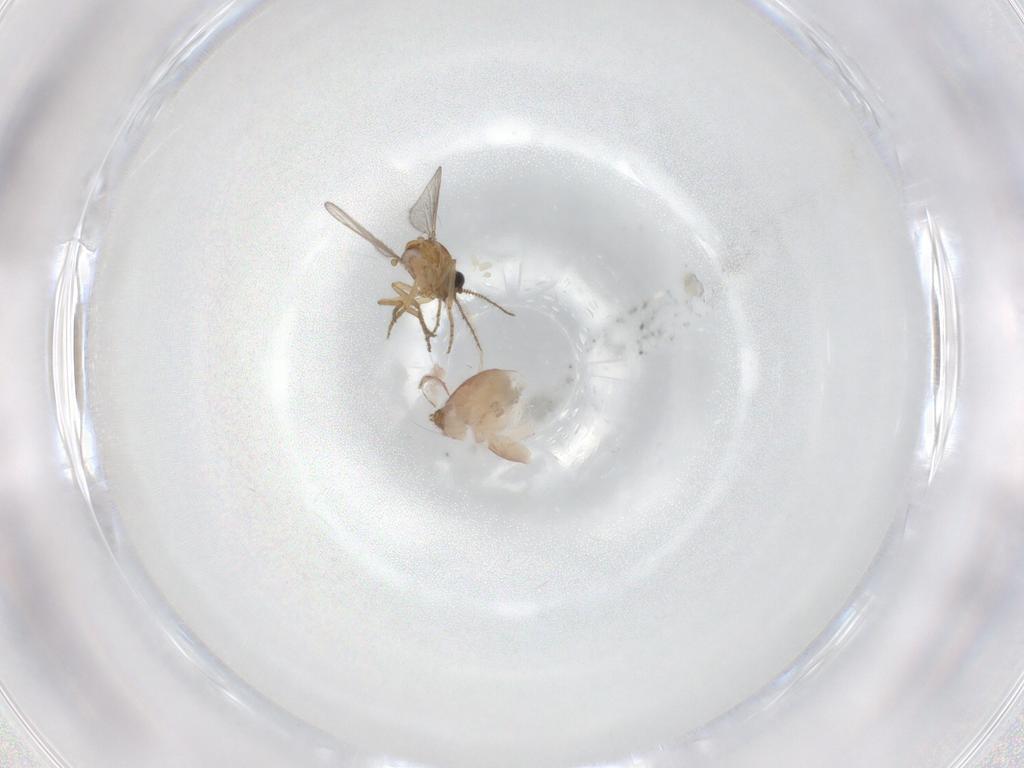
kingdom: Animalia
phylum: Arthropoda
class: Insecta
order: Diptera
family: Ceratopogonidae
